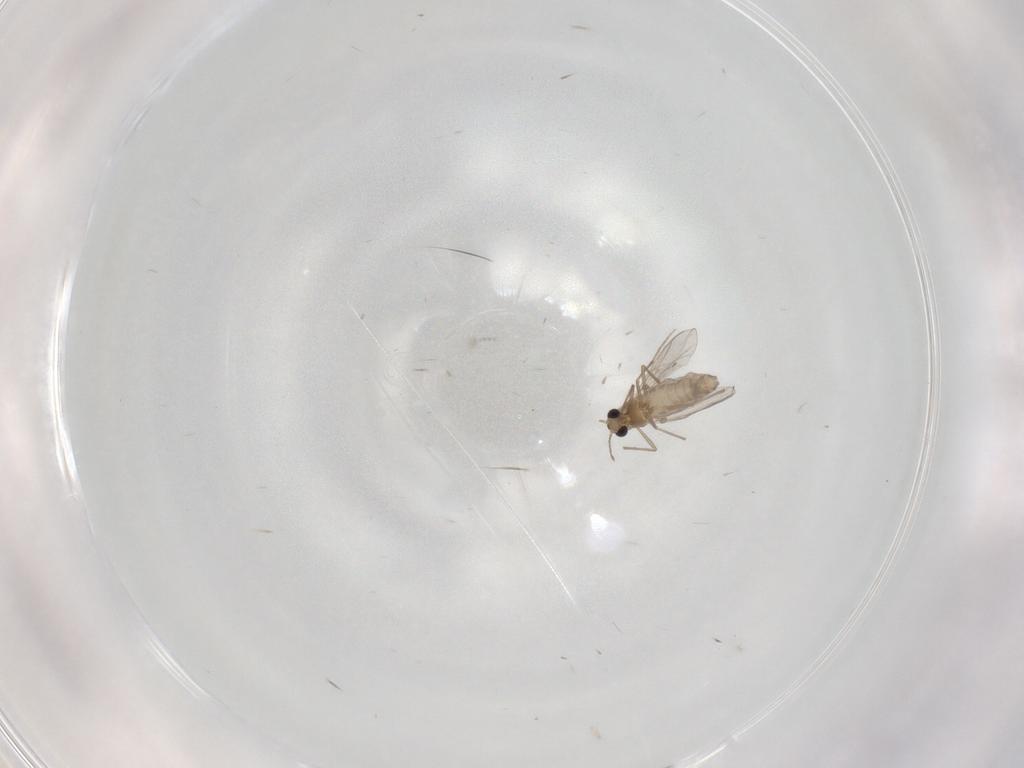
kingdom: Animalia
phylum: Arthropoda
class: Insecta
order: Diptera
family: Chironomidae
